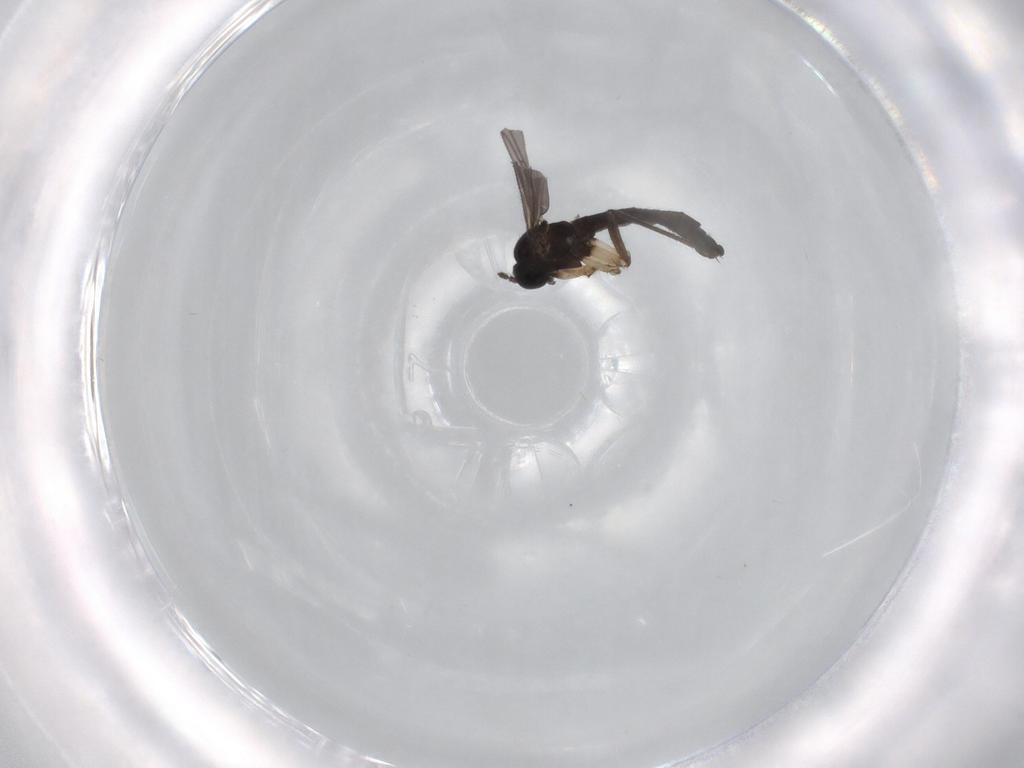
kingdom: Animalia
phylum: Arthropoda
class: Insecta
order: Diptera
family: Sciaridae
